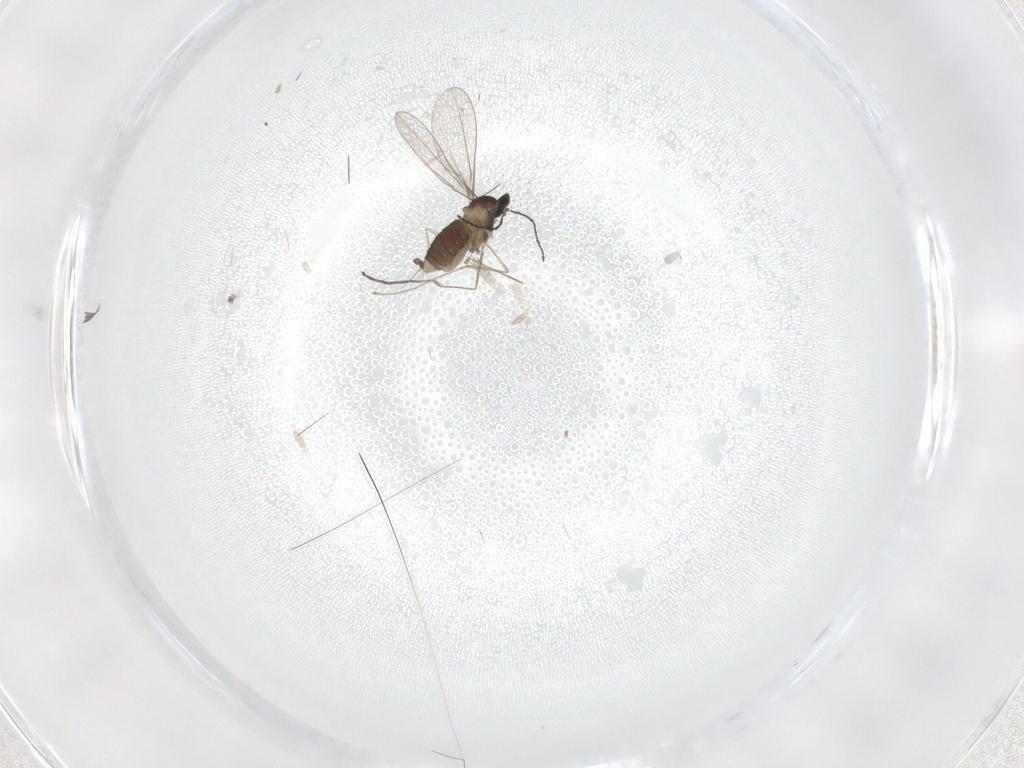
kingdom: Animalia
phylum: Arthropoda
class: Insecta
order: Diptera
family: Cecidomyiidae
